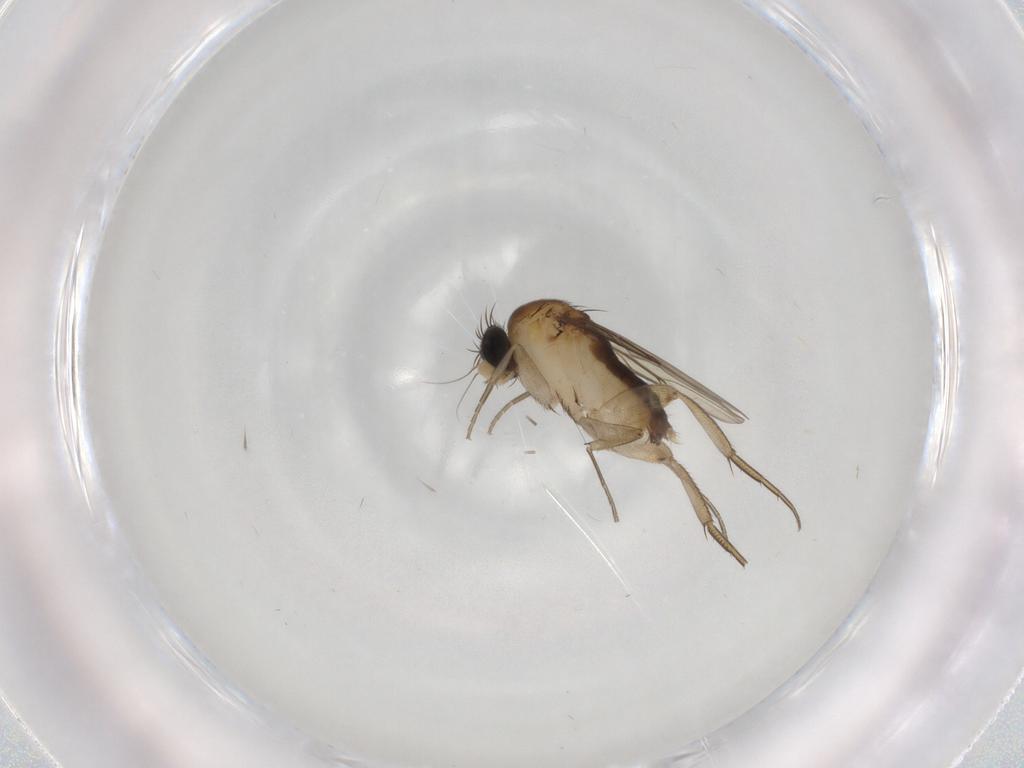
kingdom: Animalia
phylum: Arthropoda
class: Insecta
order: Diptera
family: Phoridae
